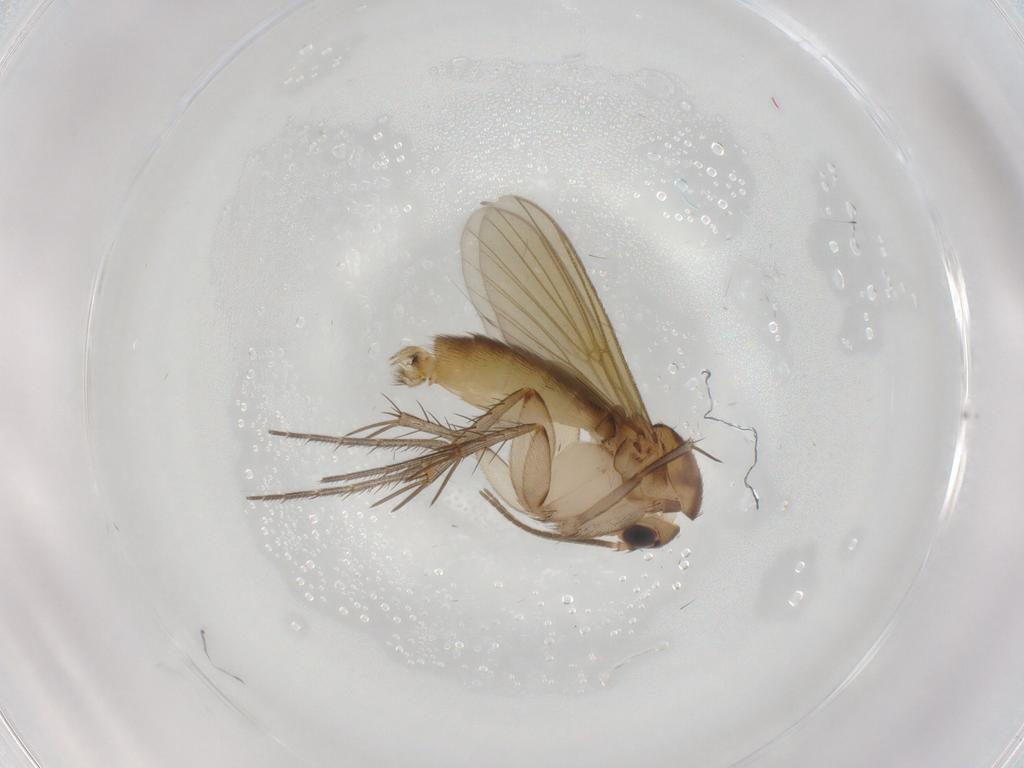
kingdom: Animalia
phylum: Arthropoda
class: Insecta
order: Diptera
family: Mycetophilidae
